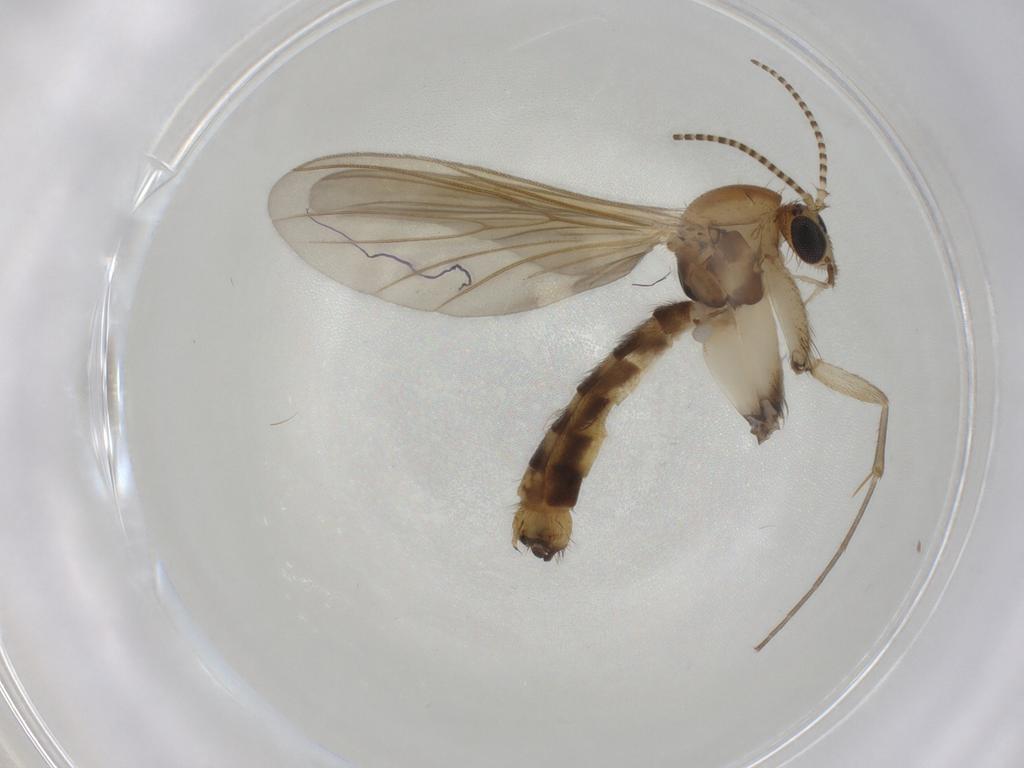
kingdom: Animalia
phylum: Arthropoda
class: Insecta
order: Diptera
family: Mycetophilidae
